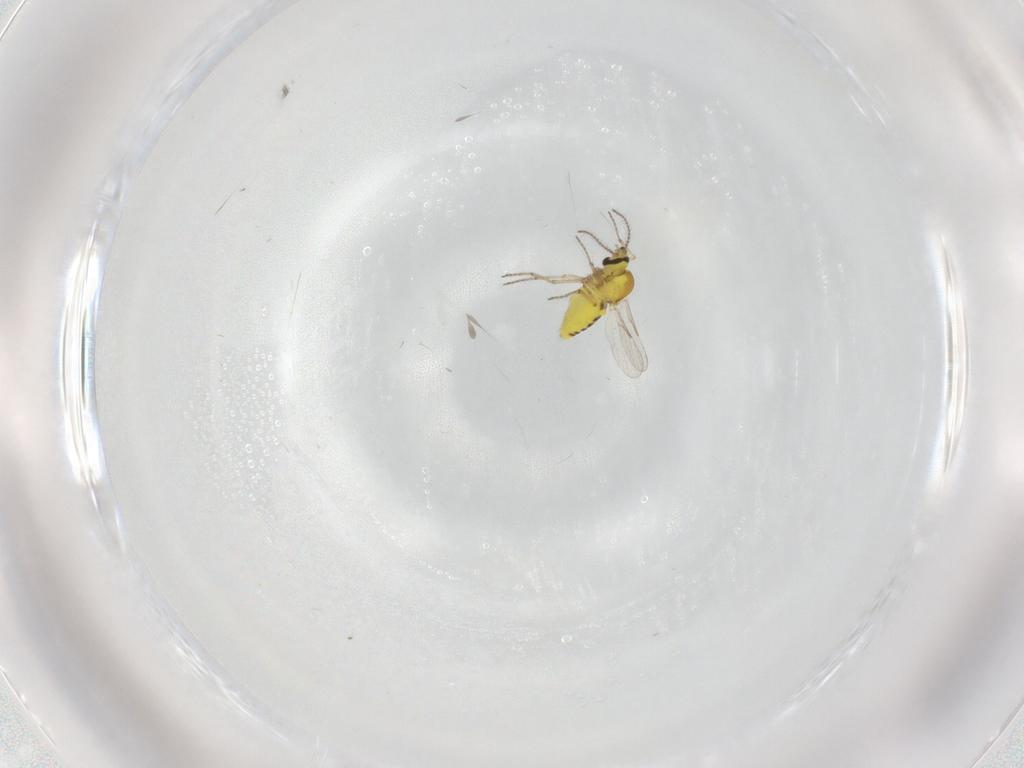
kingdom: Animalia
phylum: Arthropoda
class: Insecta
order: Diptera
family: Ceratopogonidae
